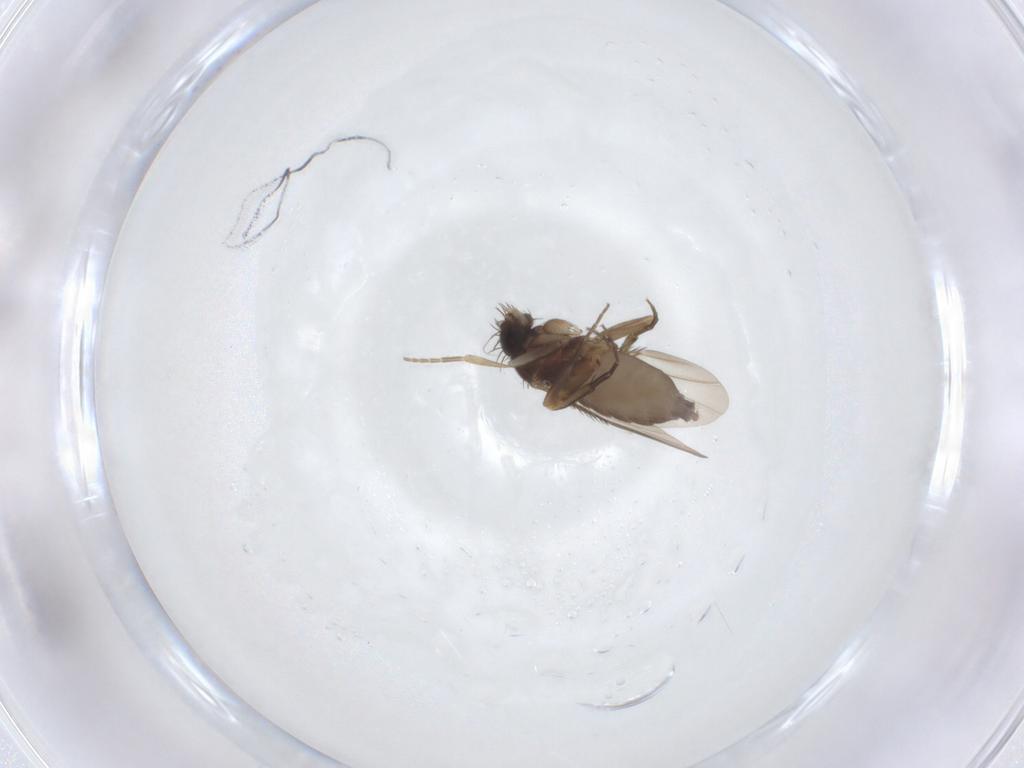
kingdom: Animalia
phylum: Arthropoda
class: Insecta
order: Diptera
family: Phoridae
